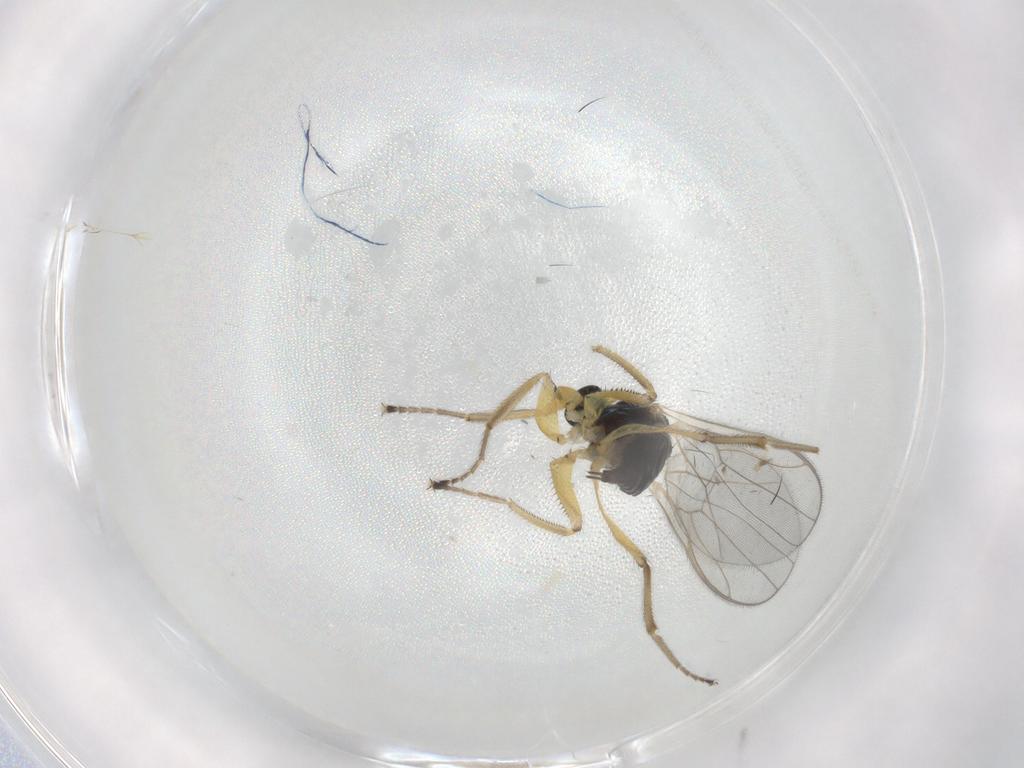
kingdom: Animalia
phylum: Arthropoda
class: Insecta
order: Diptera
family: Hybotidae
